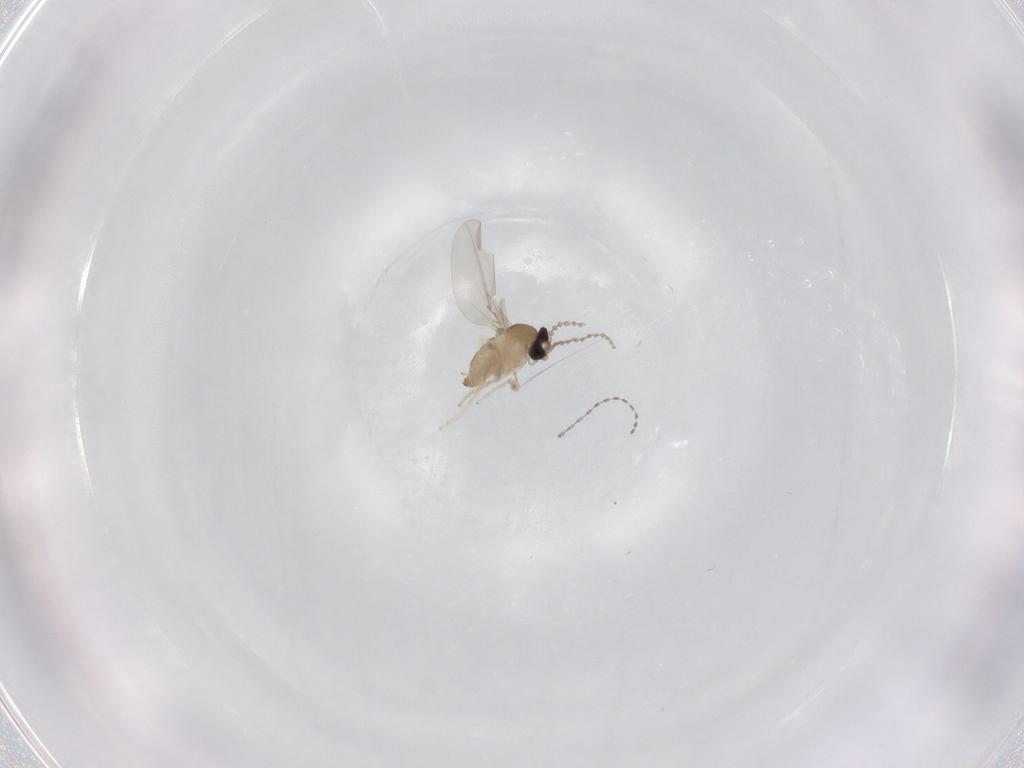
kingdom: Animalia
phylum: Arthropoda
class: Insecta
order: Diptera
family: Cecidomyiidae
